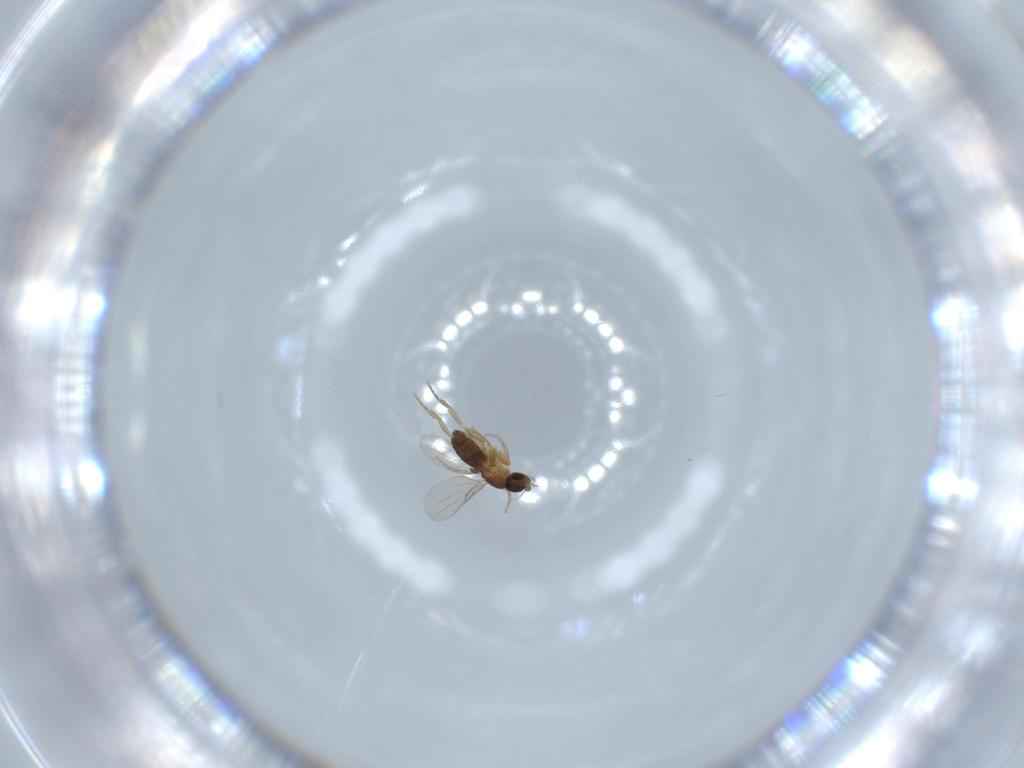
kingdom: Animalia
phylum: Arthropoda
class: Insecta
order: Diptera
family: Phoridae
